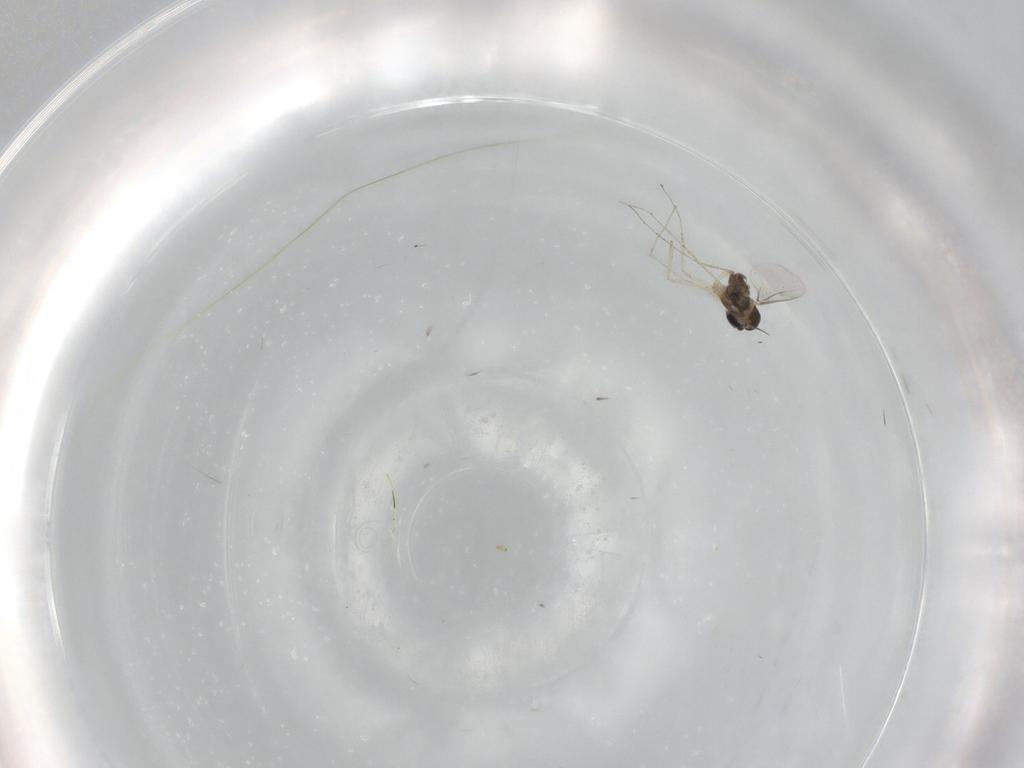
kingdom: Animalia
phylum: Arthropoda
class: Insecta
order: Diptera
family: Cecidomyiidae
